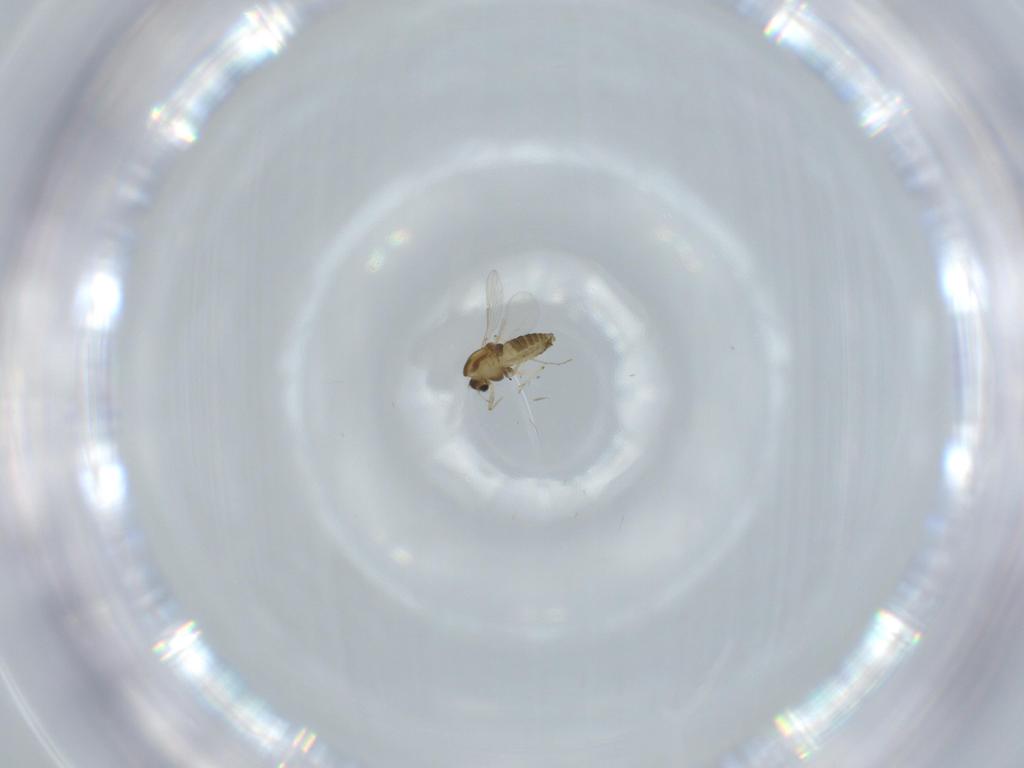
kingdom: Animalia
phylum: Arthropoda
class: Insecta
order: Diptera
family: Chironomidae
